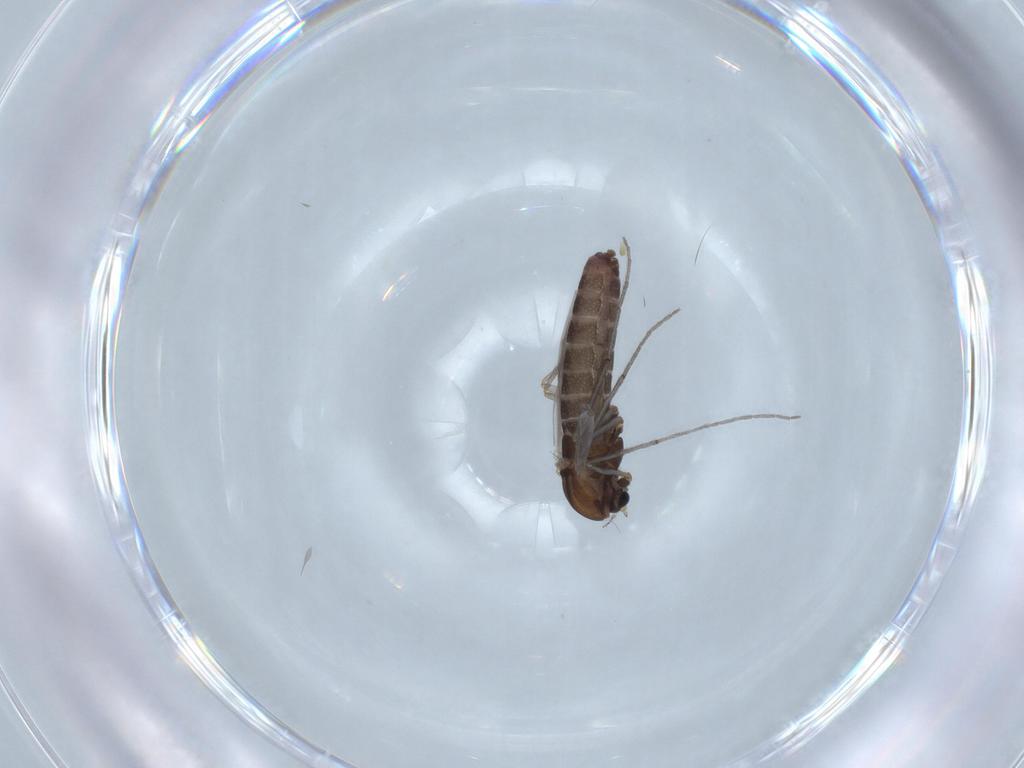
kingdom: Animalia
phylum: Arthropoda
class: Insecta
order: Diptera
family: Chironomidae
